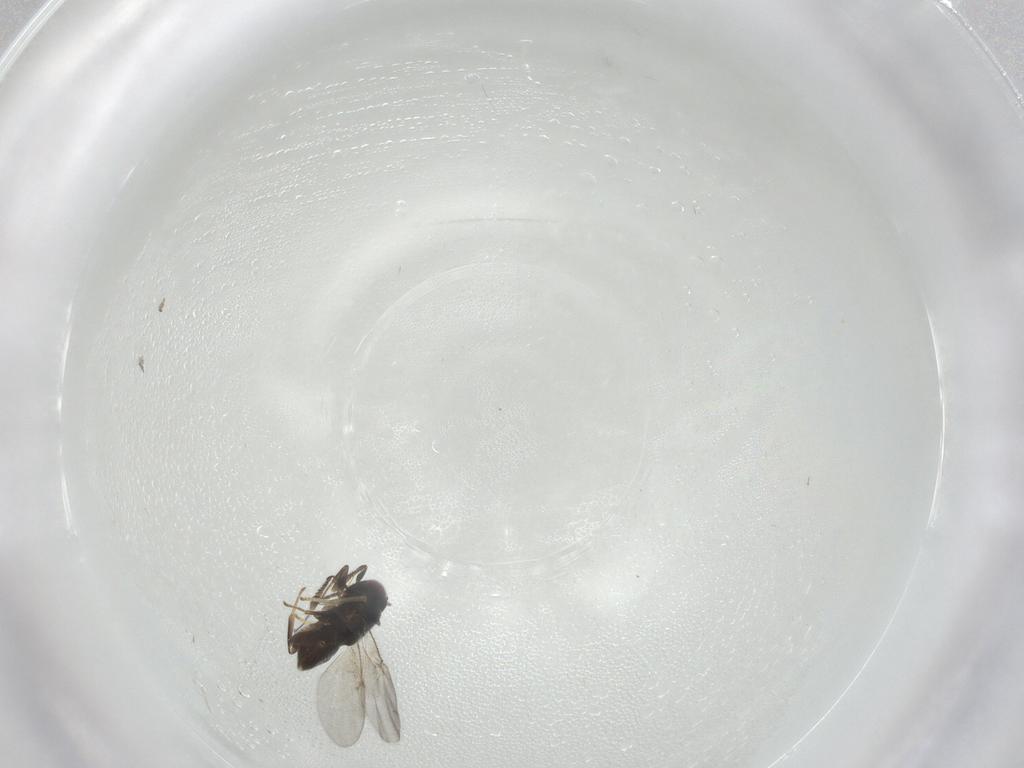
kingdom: Animalia
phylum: Arthropoda
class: Insecta
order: Hymenoptera
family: Encyrtidae
